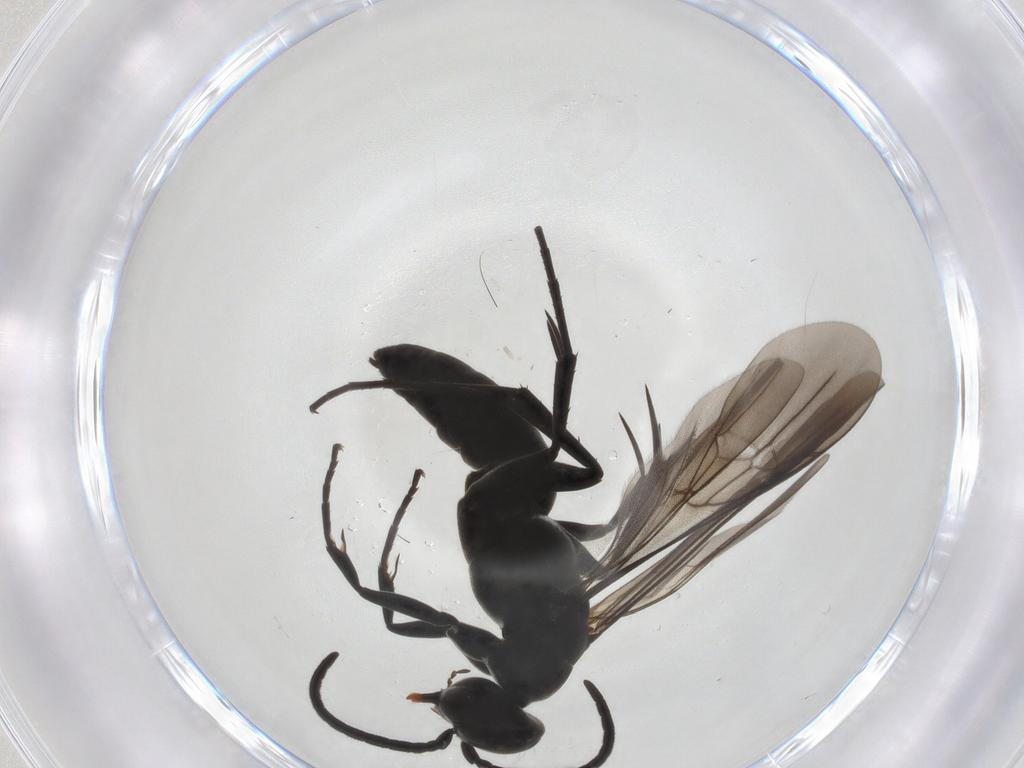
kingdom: Animalia
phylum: Arthropoda
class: Insecta
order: Hymenoptera
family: Pompilidae
